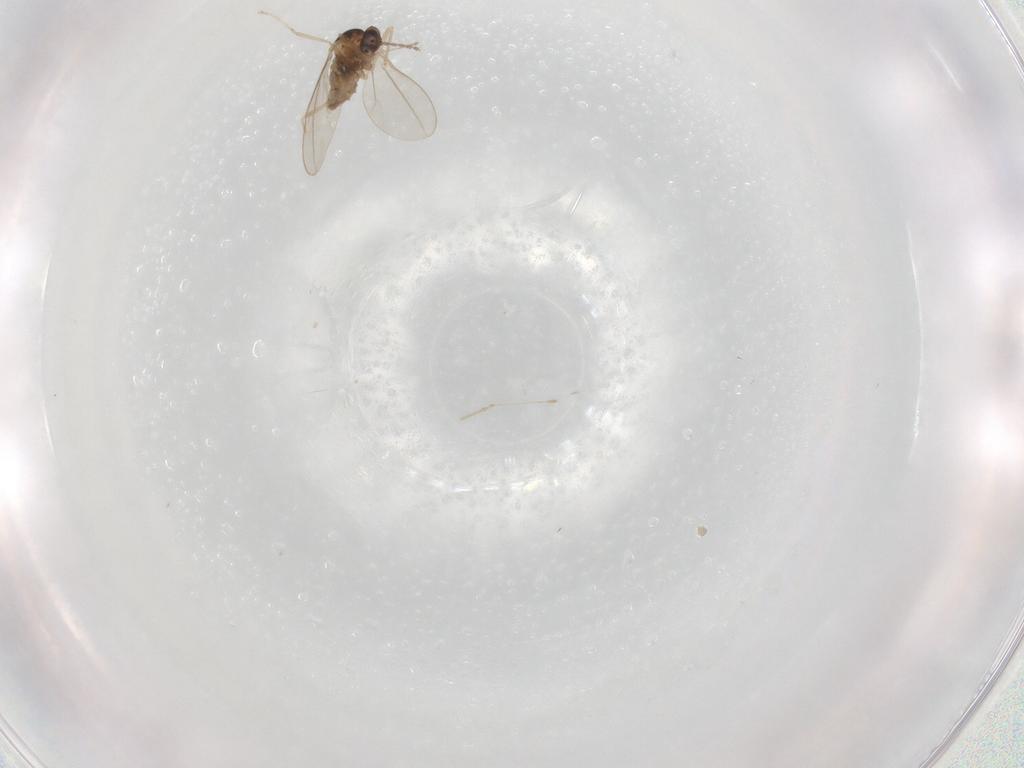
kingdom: Animalia
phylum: Arthropoda
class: Insecta
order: Diptera
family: Cecidomyiidae
